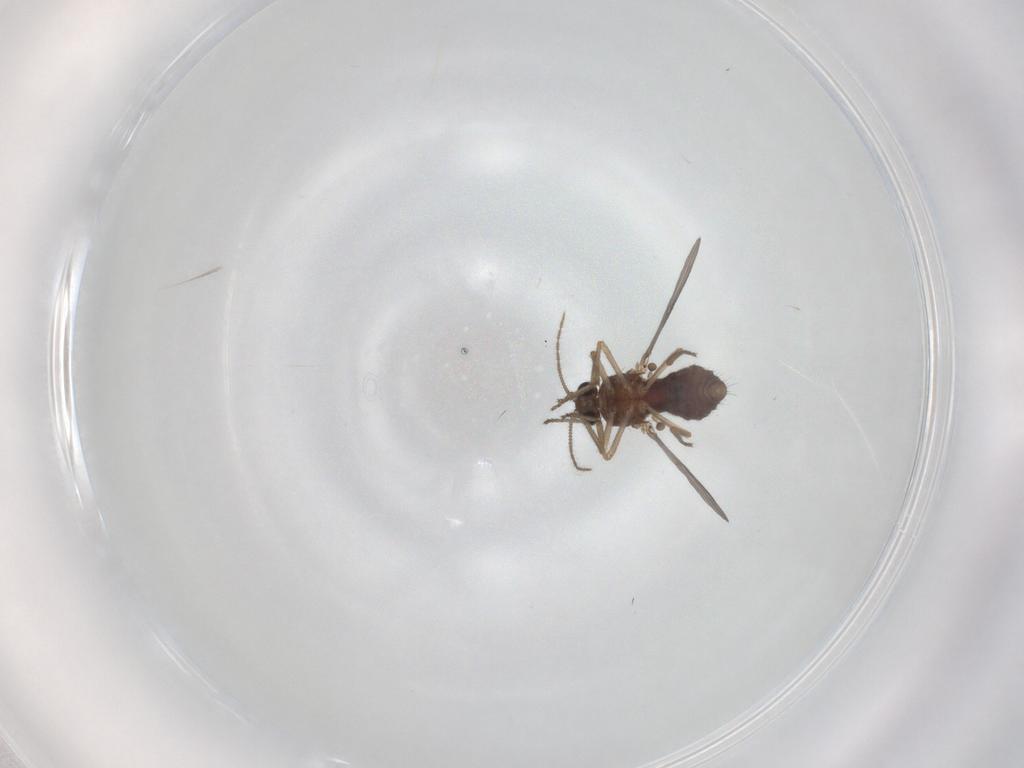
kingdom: Animalia
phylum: Arthropoda
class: Insecta
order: Diptera
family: Ceratopogonidae
